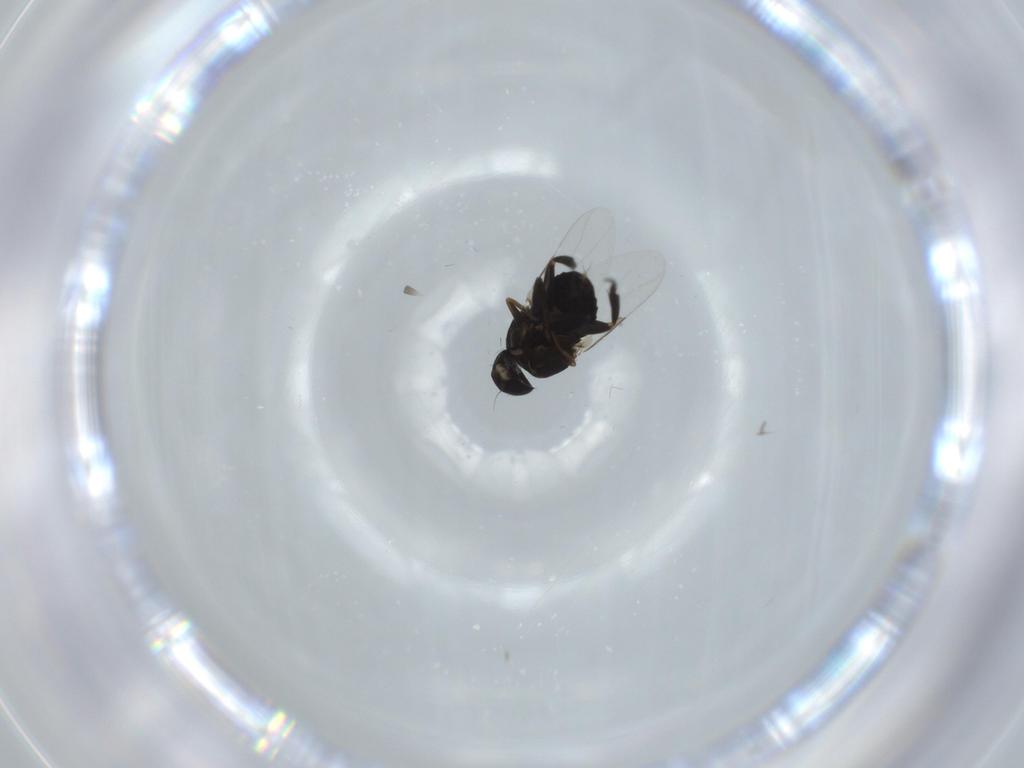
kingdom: Animalia
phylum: Arthropoda
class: Insecta
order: Diptera
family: Phoridae
